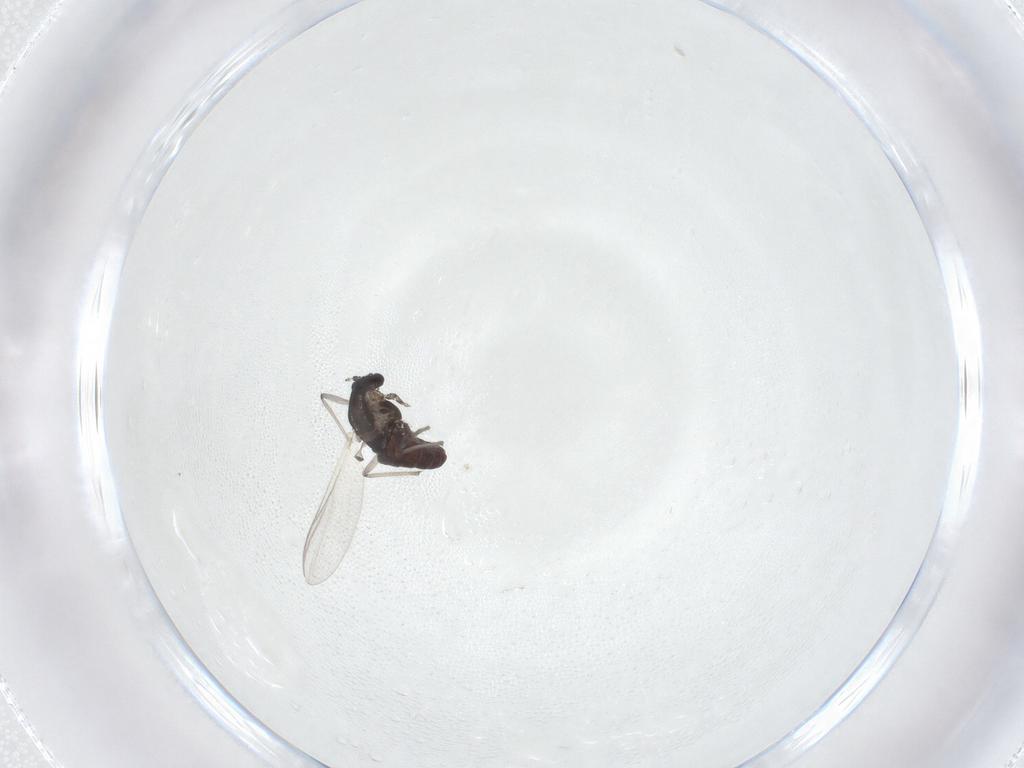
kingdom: Animalia
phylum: Arthropoda
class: Insecta
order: Diptera
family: Chironomidae
